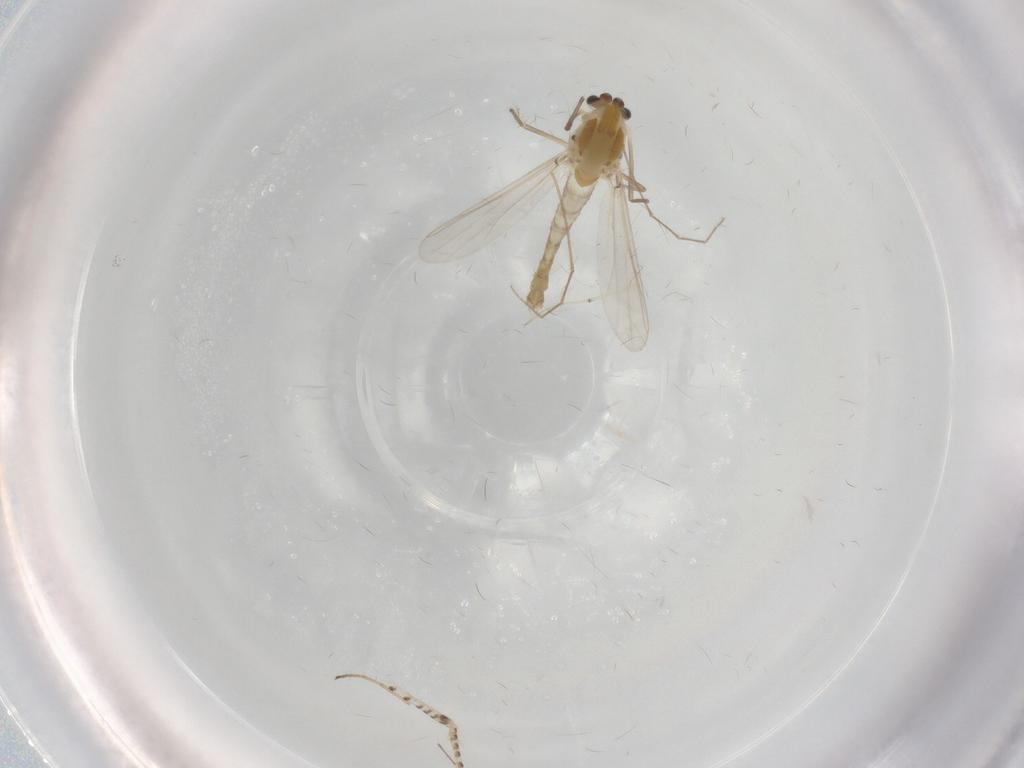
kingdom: Animalia
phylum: Arthropoda
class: Insecta
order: Diptera
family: Chironomidae
